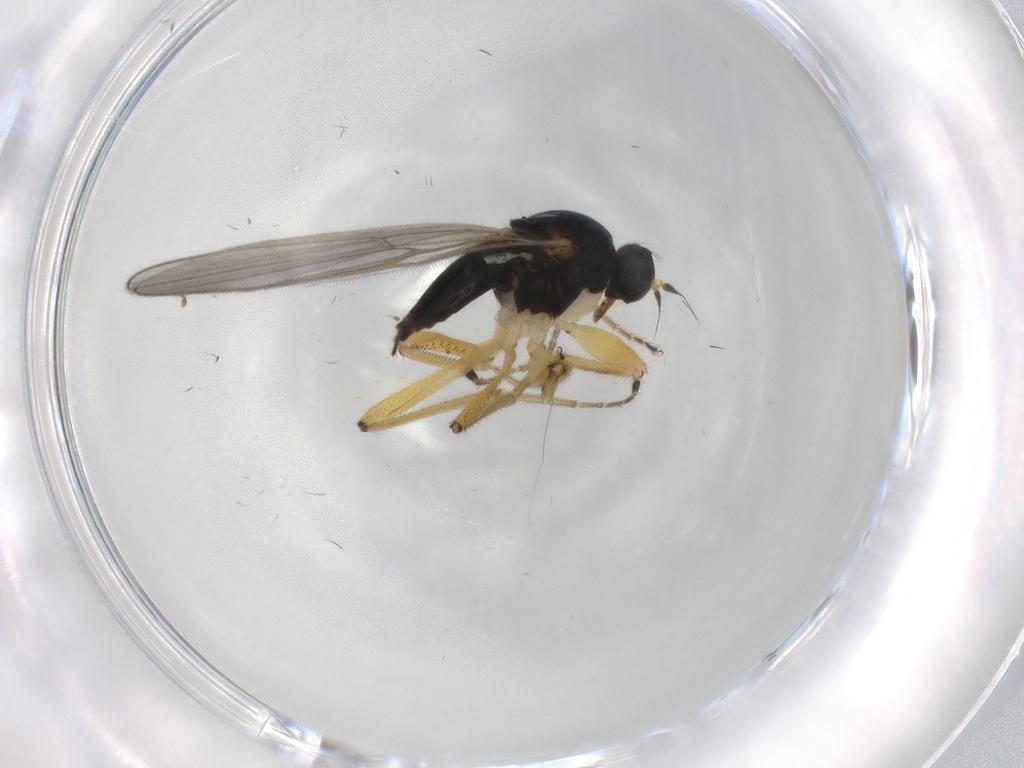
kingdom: Animalia
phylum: Arthropoda
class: Insecta
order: Diptera
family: Hybotidae
